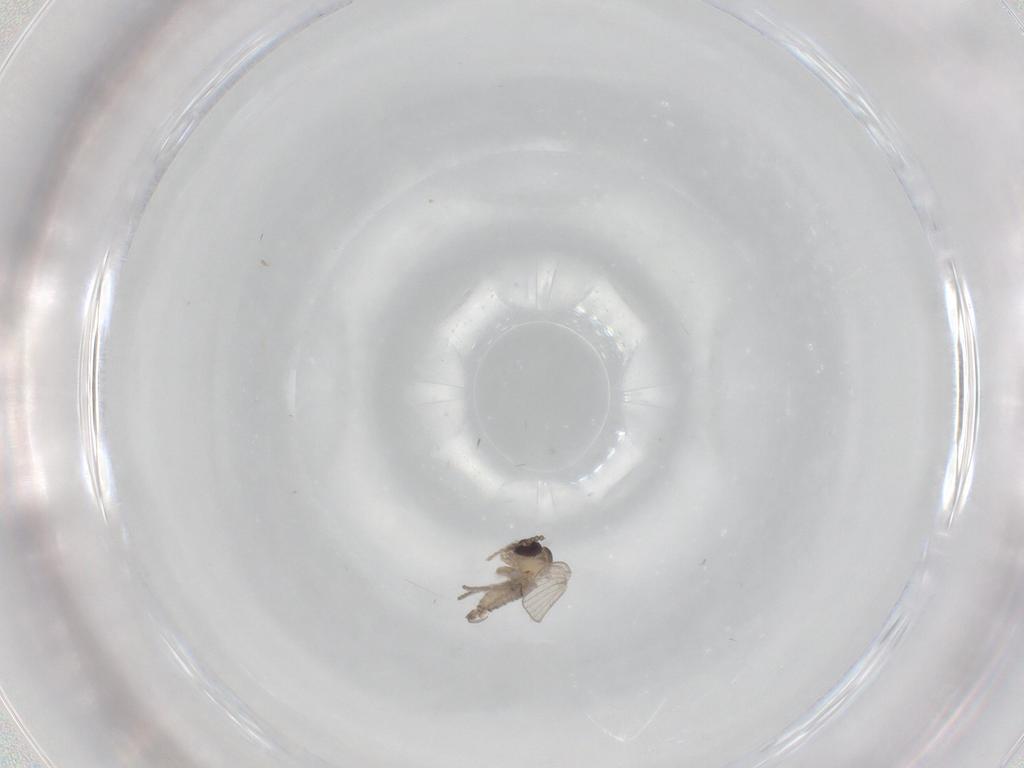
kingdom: Animalia
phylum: Arthropoda
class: Insecta
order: Diptera
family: Psychodidae
